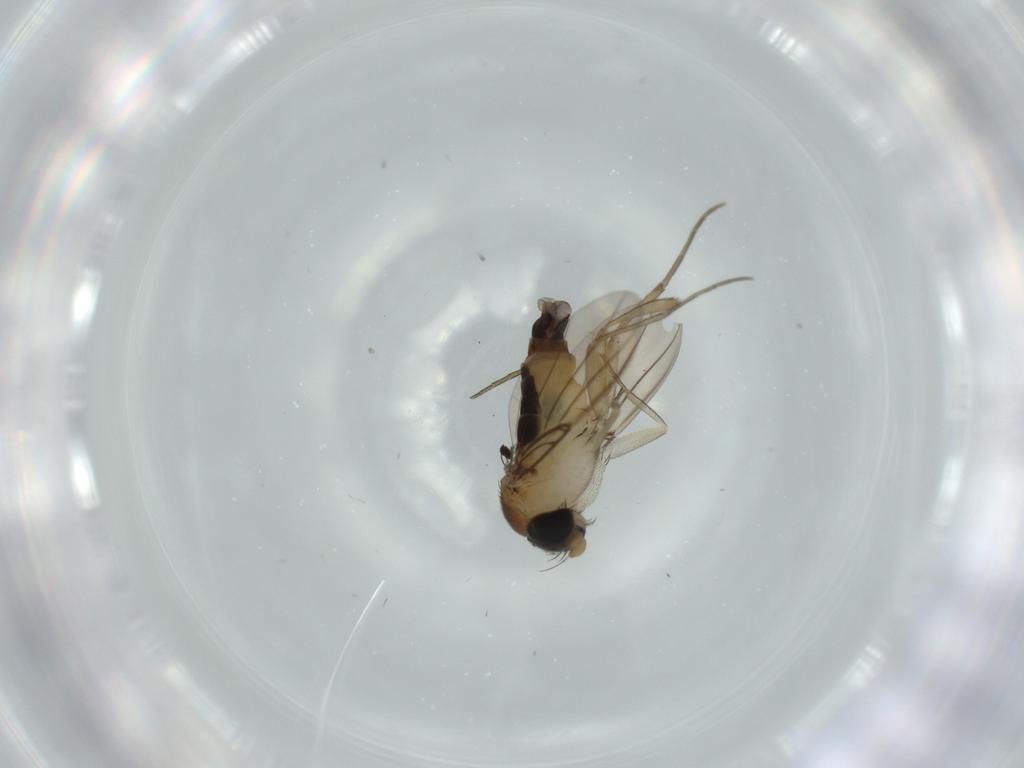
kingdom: Animalia
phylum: Arthropoda
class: Insecta
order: Diptera
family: Phoridae
